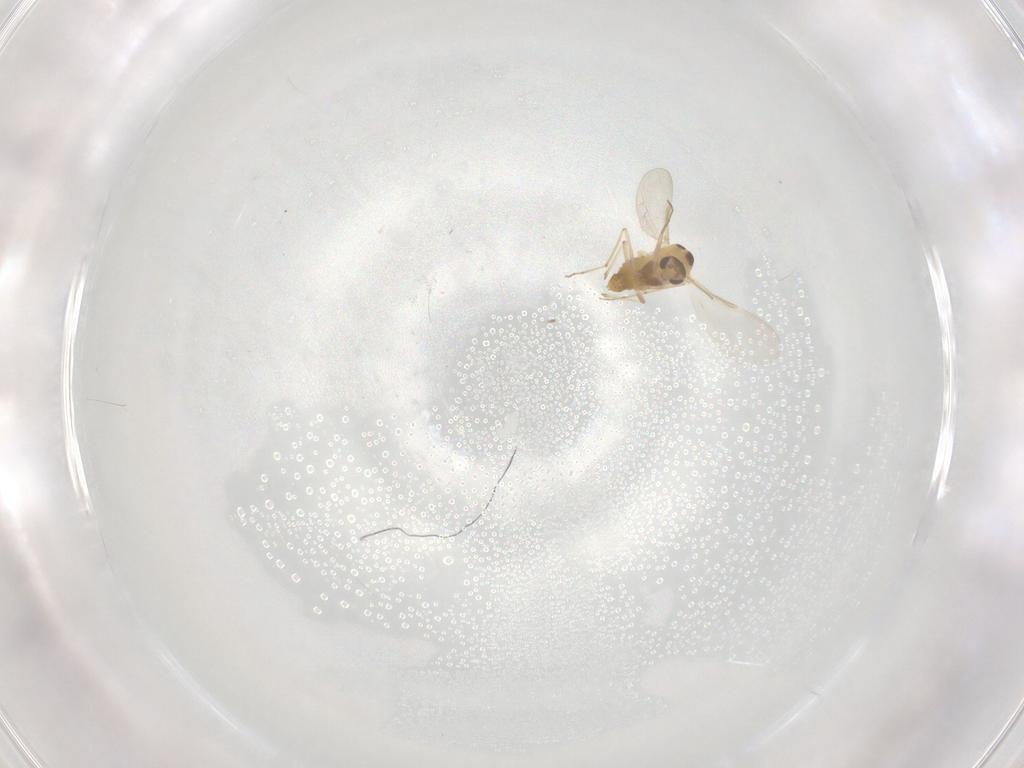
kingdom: Animalia
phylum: Arthropoda
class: Insecta
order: Diptera
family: Chironomidae
